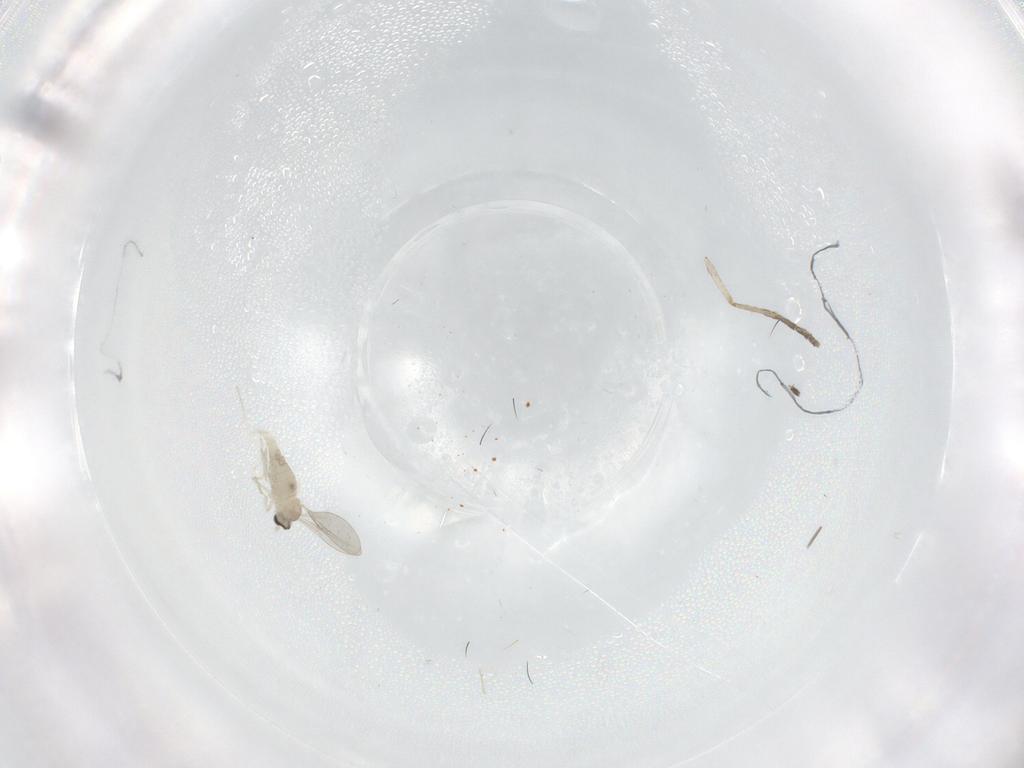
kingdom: Animalia
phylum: Arthropoda
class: Insecta
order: Diptera
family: Cecidomyiidae
